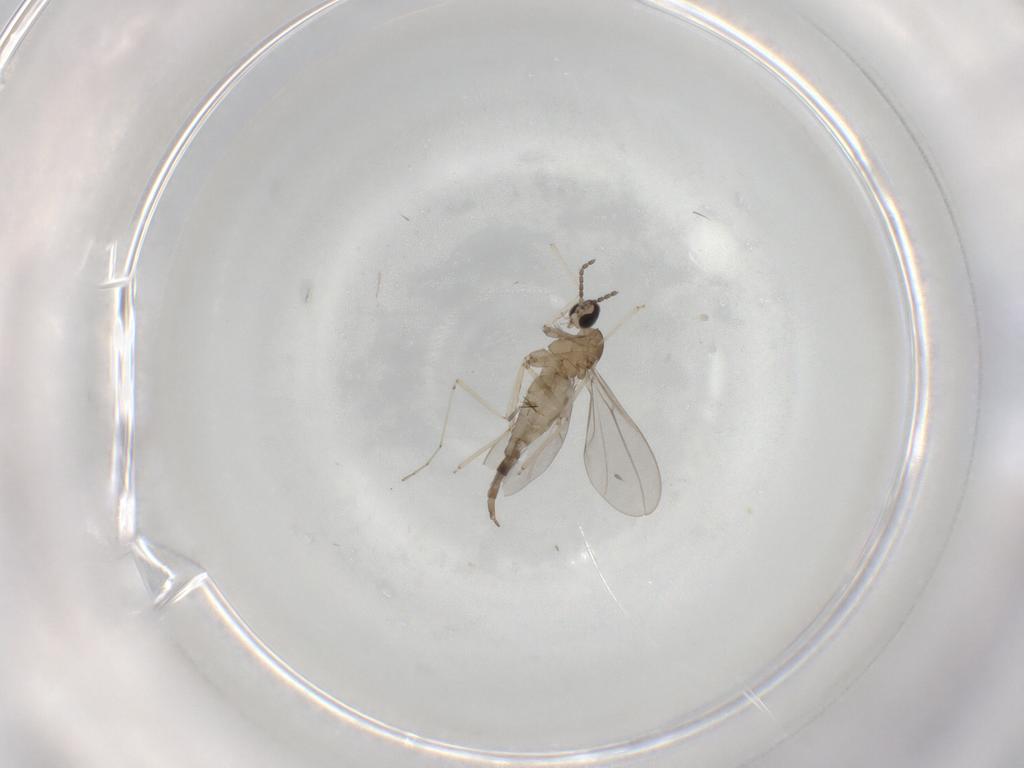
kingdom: Animalia
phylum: Arthropoda
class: Insecta
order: Diptera
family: Cecidomyiidae
